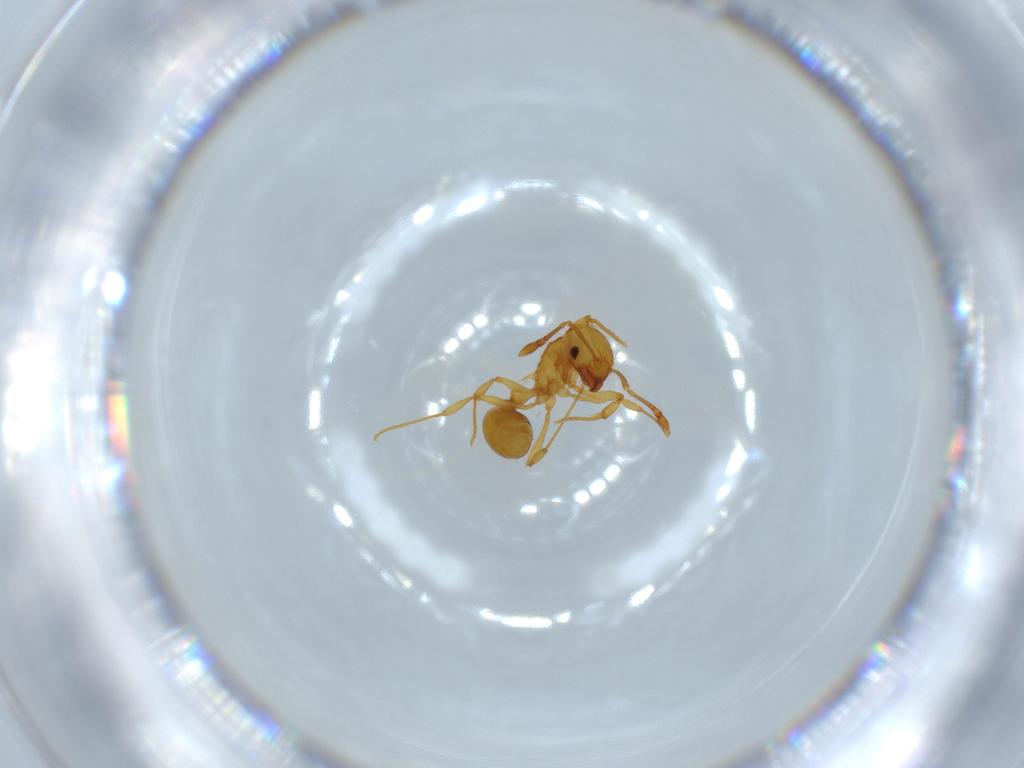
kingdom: Animalia
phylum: Arthropoda
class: Insecta
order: Hymenoptera
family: Formicidae
